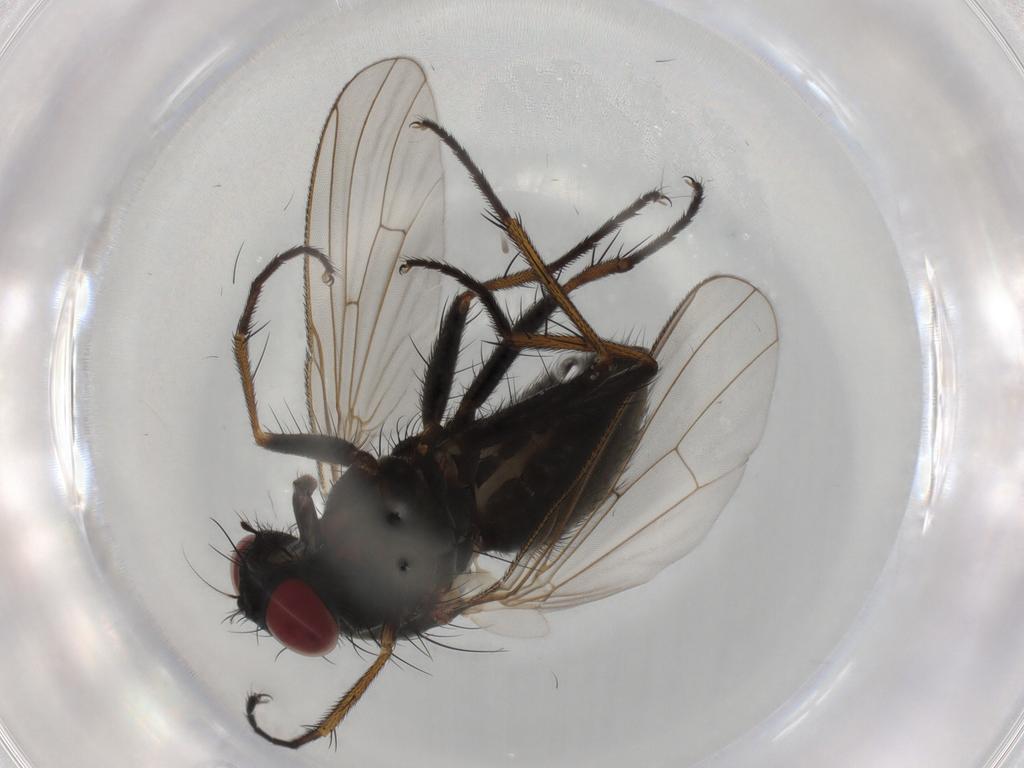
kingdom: Animalia
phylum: Arthropoda
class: Insecta
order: Diptera
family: Muscidae
